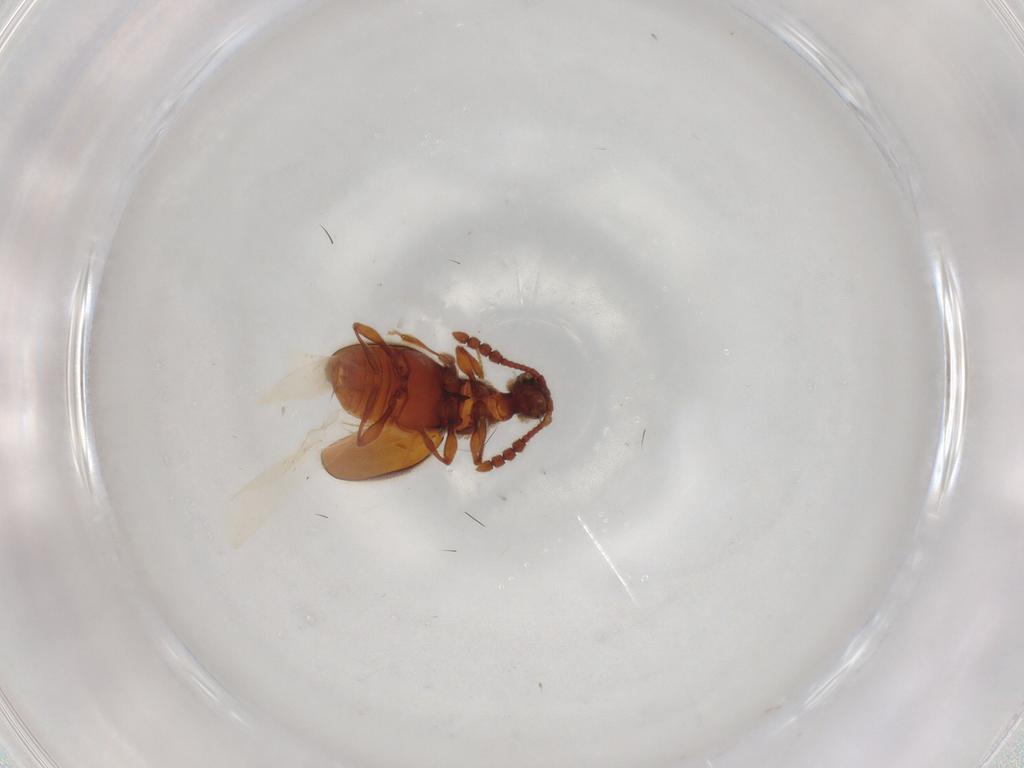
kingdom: Animalia
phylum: Arthropoda
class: Insecta
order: Coleoptera
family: Staphylinidae
